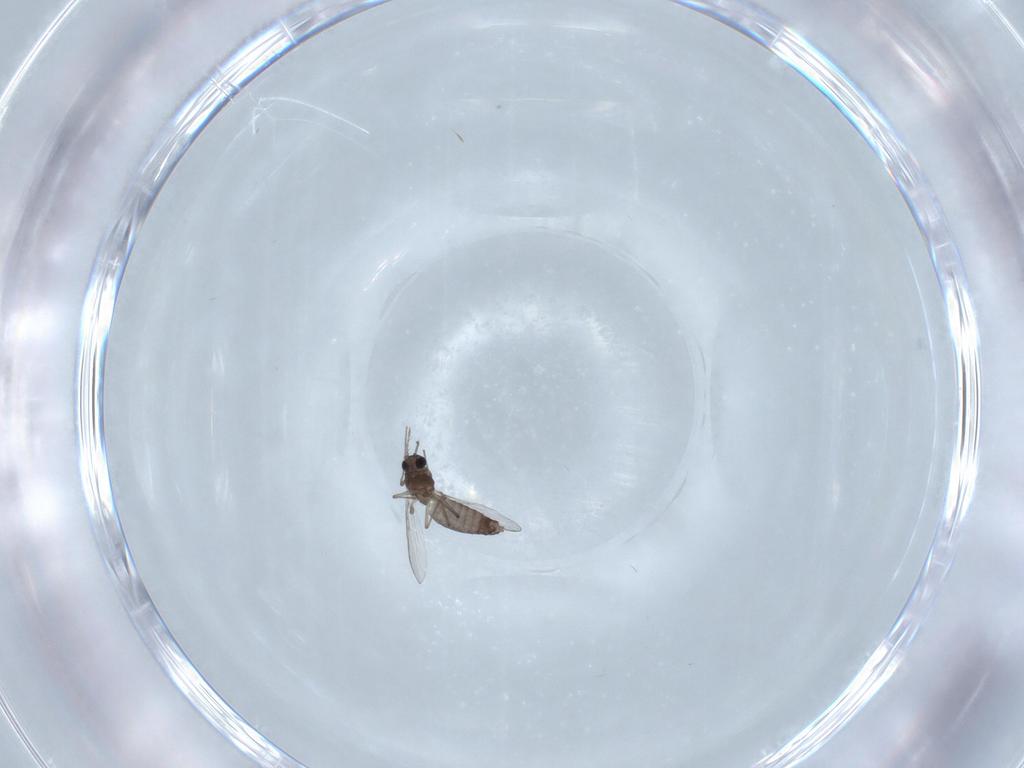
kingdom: Animalia
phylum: Arthropoda
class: Insecta
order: Diptera
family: Chironomidae
